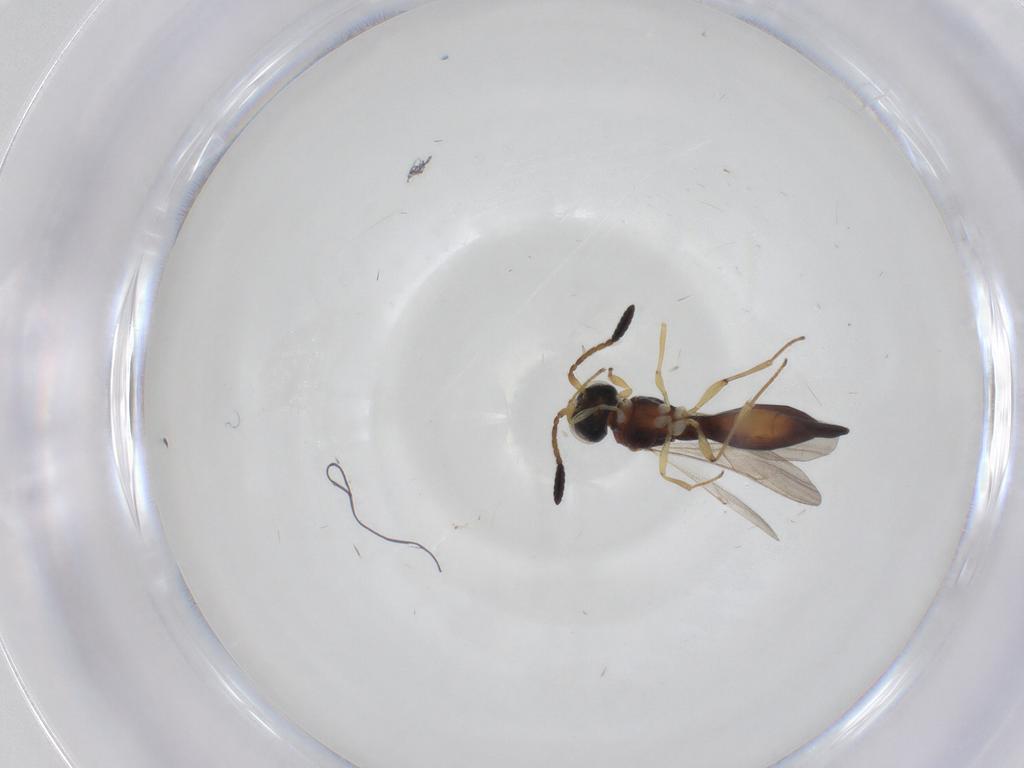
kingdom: Animalia
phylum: Arthropoda
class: Insecta
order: Hymenoptera
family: Scelionidae
